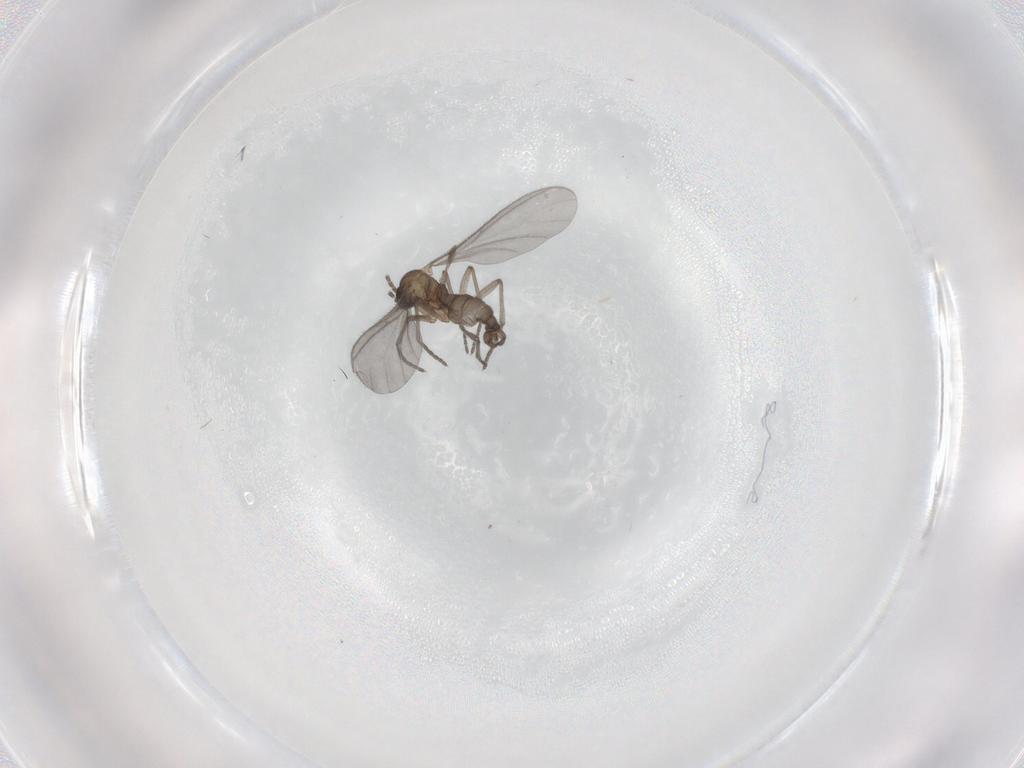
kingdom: Animalia
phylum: Arthropoda
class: Insecta
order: Diptera
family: Sciaridae
